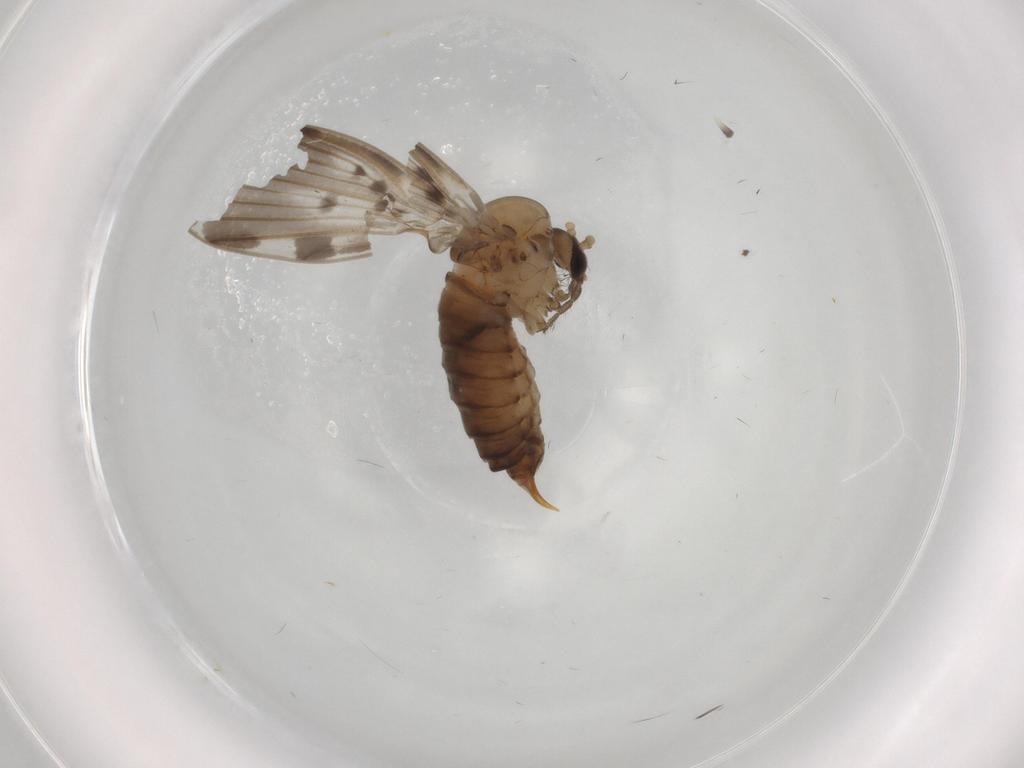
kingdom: Animalia
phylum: Arthropoda
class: Insecta
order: Diptera
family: Psychodidae
